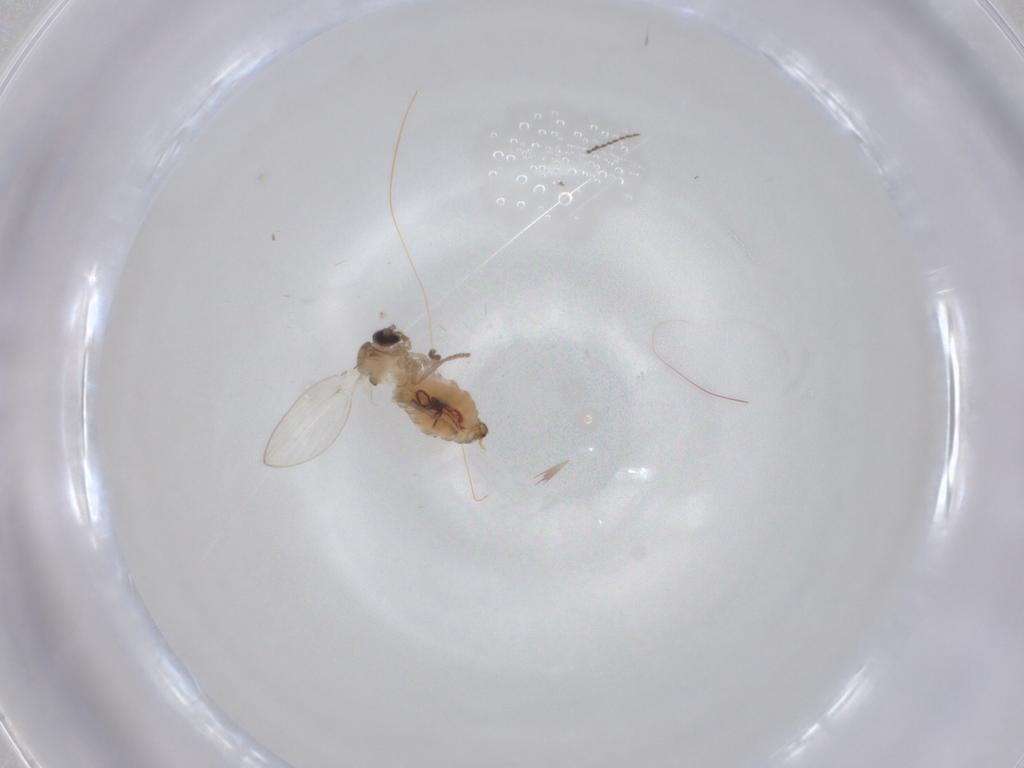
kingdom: Animalia
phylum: Arthropoda
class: Insecta
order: Diptera
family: Psychodidae
